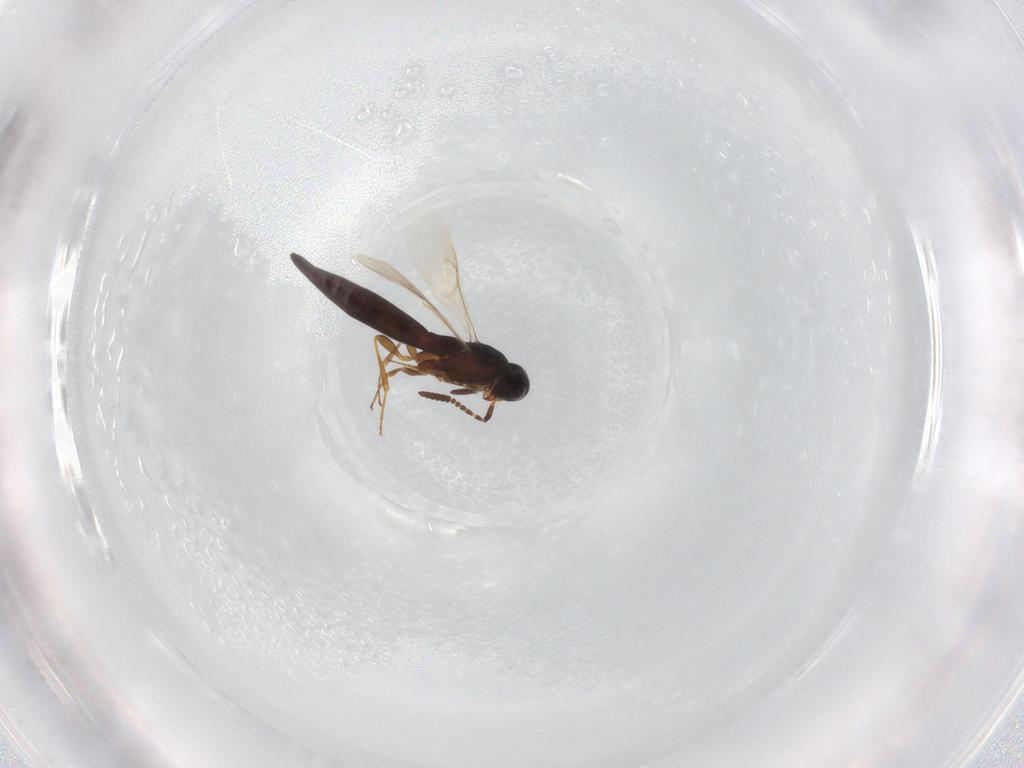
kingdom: Animalia
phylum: Arthropoda
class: Insecta
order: Hymenoptera
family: Scelionidae
